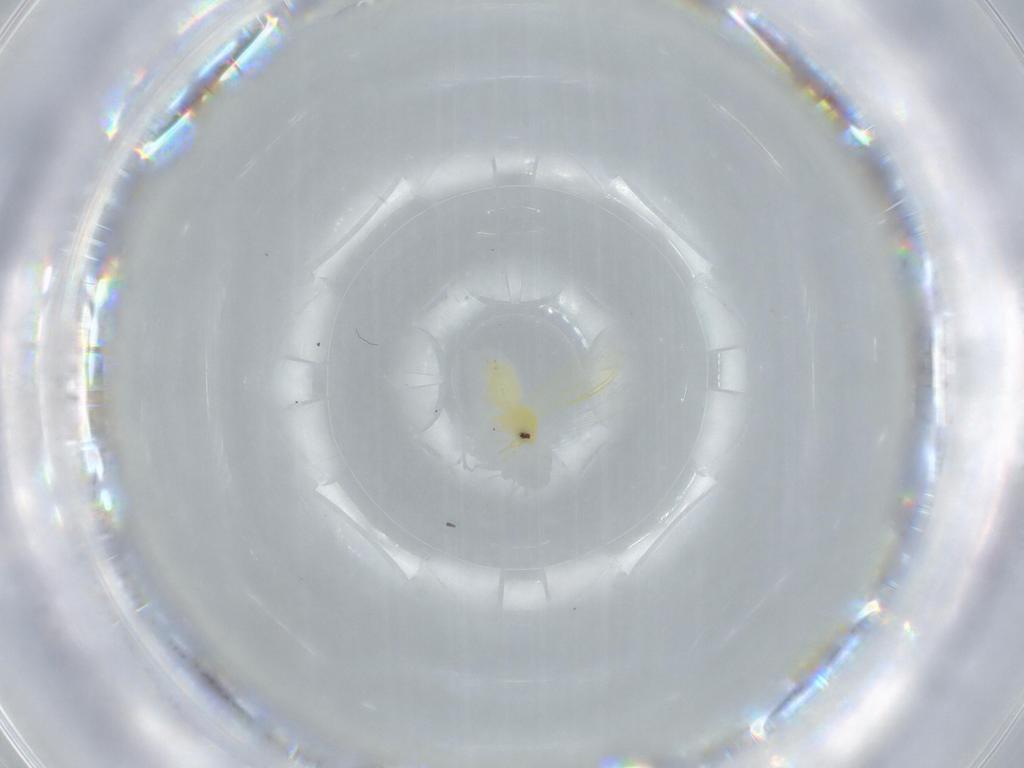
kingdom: Animalia
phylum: Arthropoda
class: Insecta
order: Hemiptera
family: Aleyrodidae
